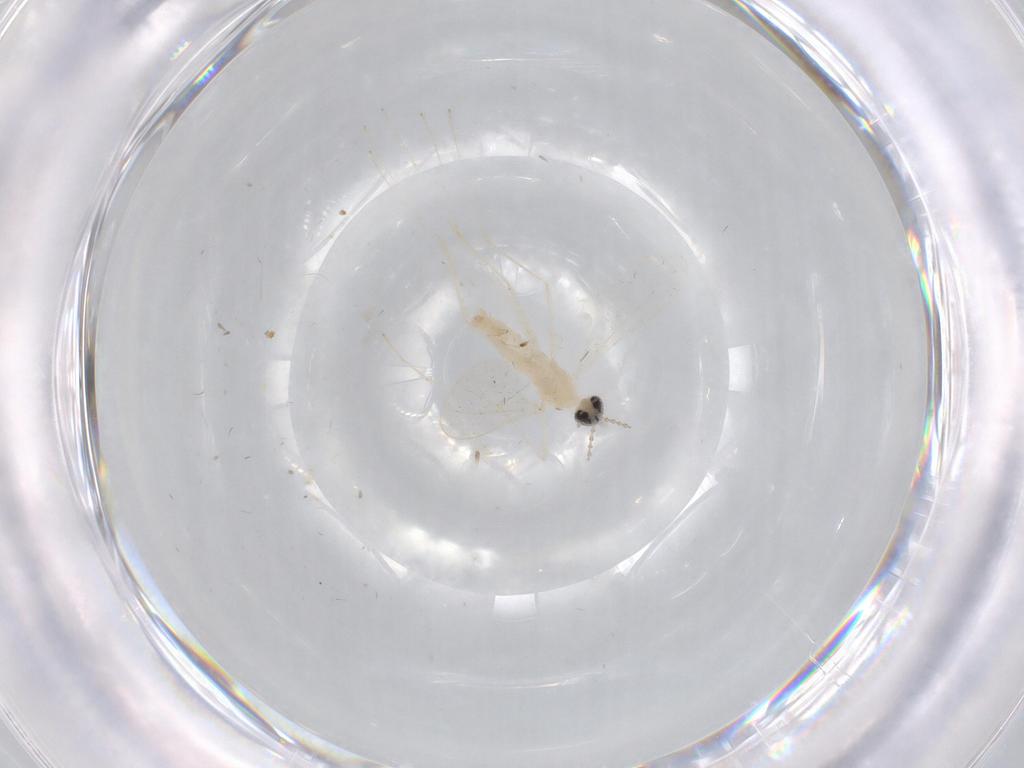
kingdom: Animalia
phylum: Arthropoda
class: Insecta
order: Diptera
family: Cecidomyiidae
